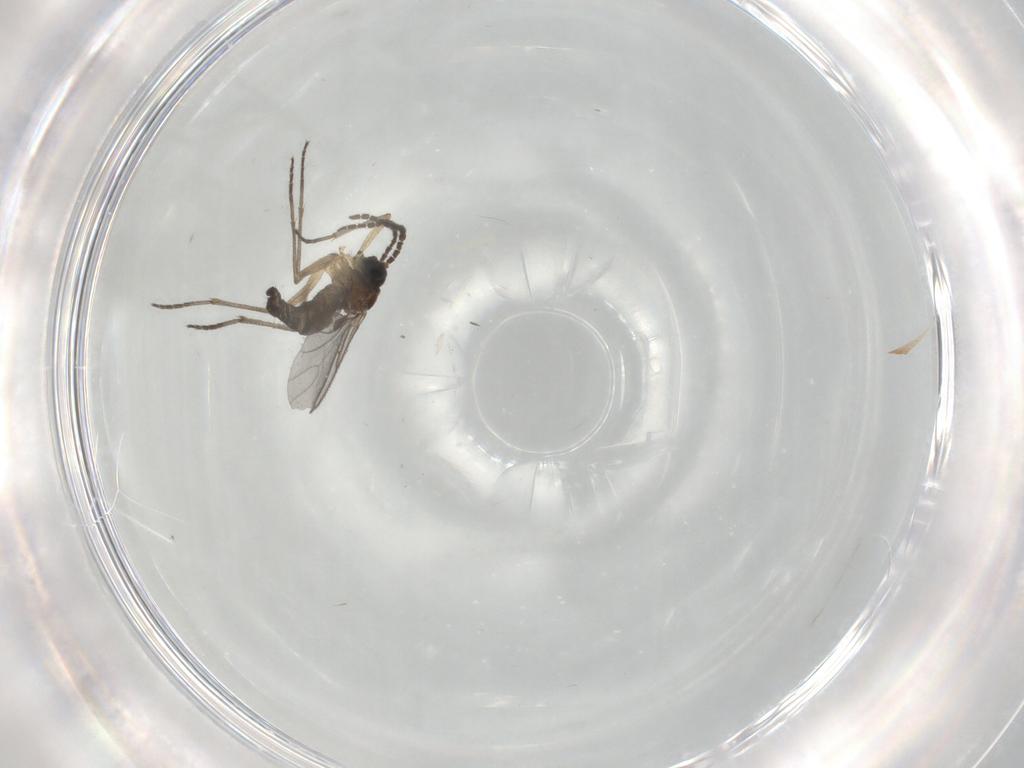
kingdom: Animalia
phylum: Arthropoda
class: Insecta
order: Diptera
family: Sciaridae
